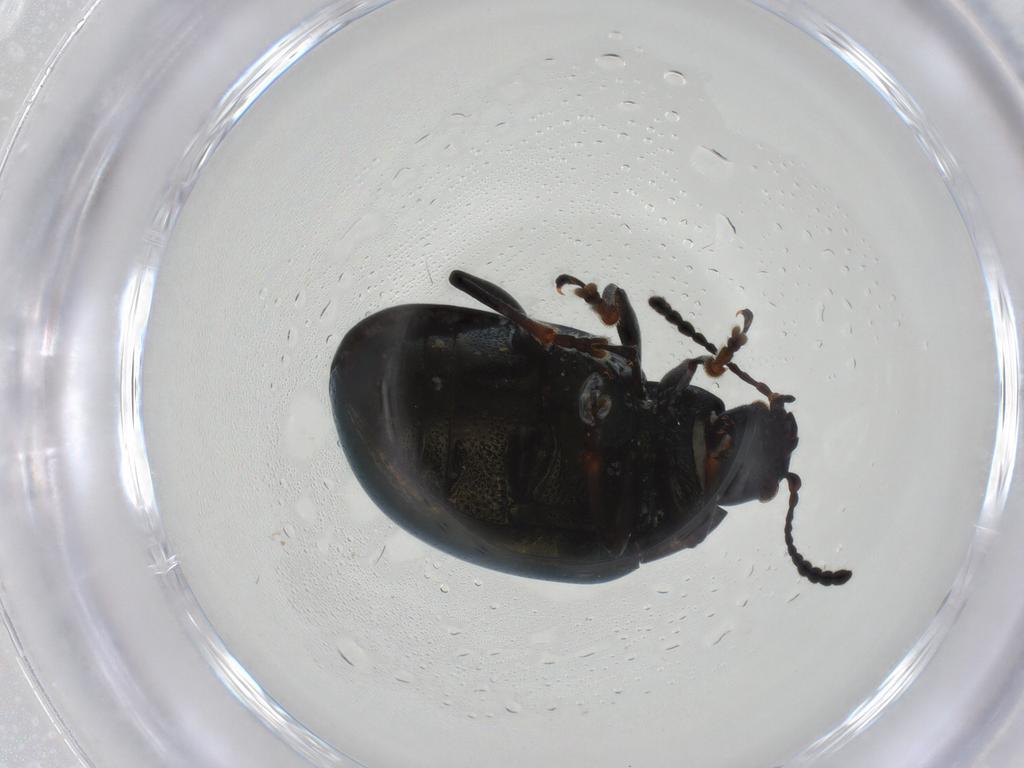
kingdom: Animalia
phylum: Arthropoda
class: Insecta
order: Coleoptera
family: Chrysomelidae
